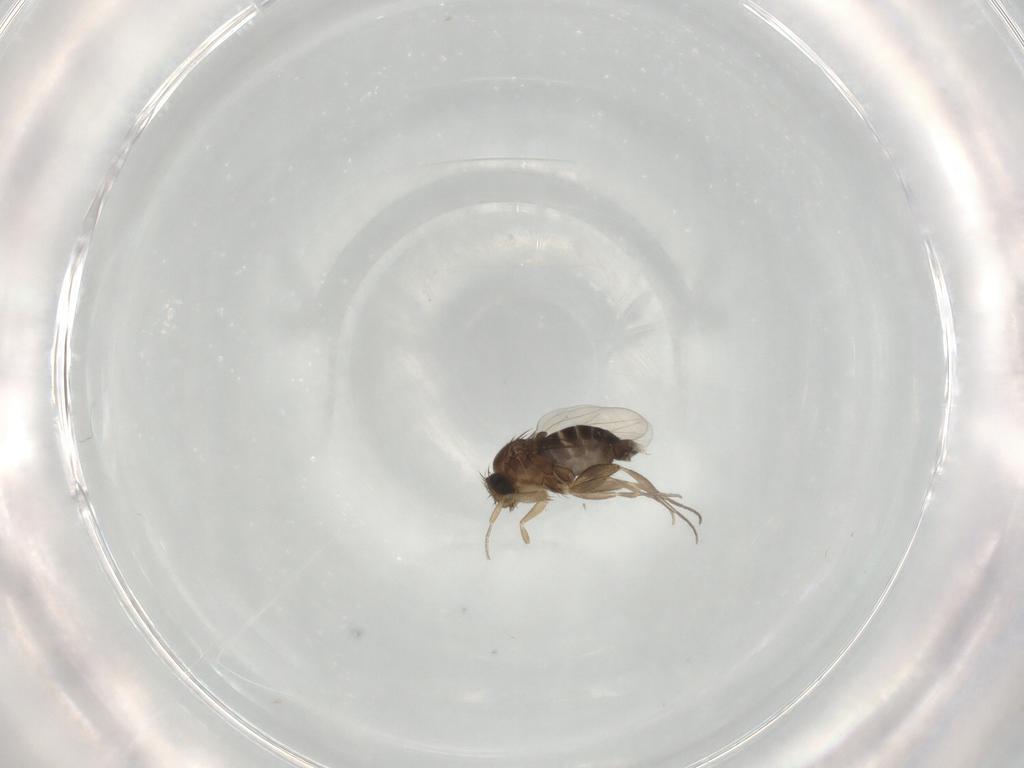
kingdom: Animalia
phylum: Arthropoda
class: Insecta
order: Diptera
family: Phoridae
